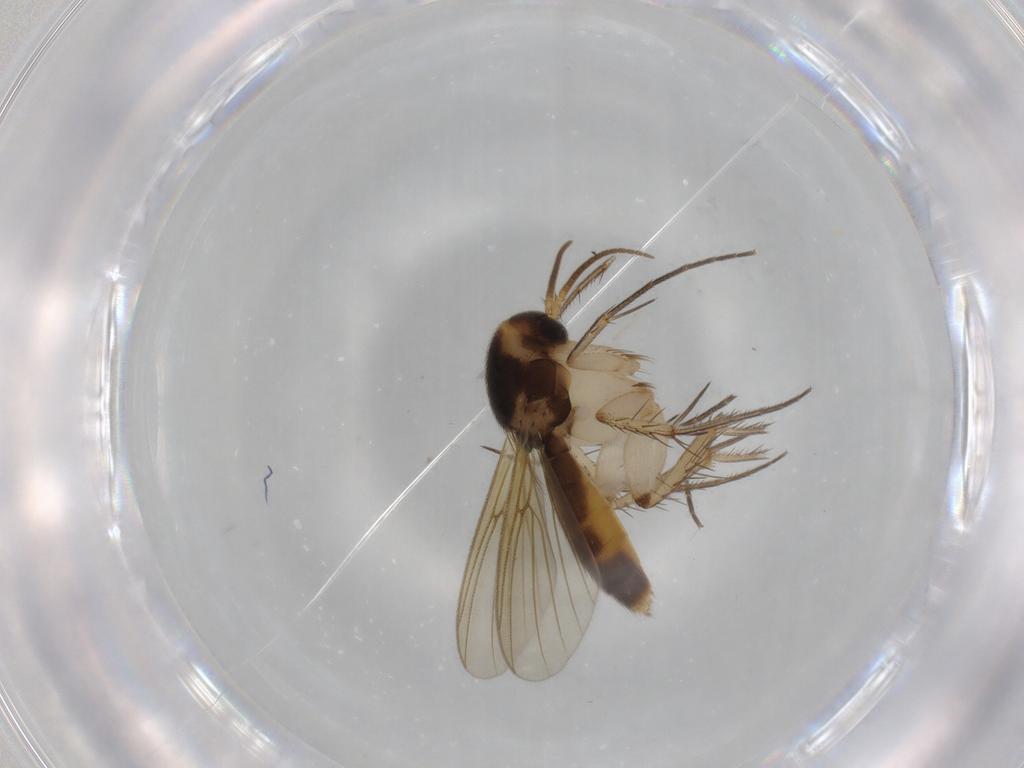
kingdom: Animalia
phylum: Arthropoda
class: Insecta
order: Diptera
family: Mycetophilidae
